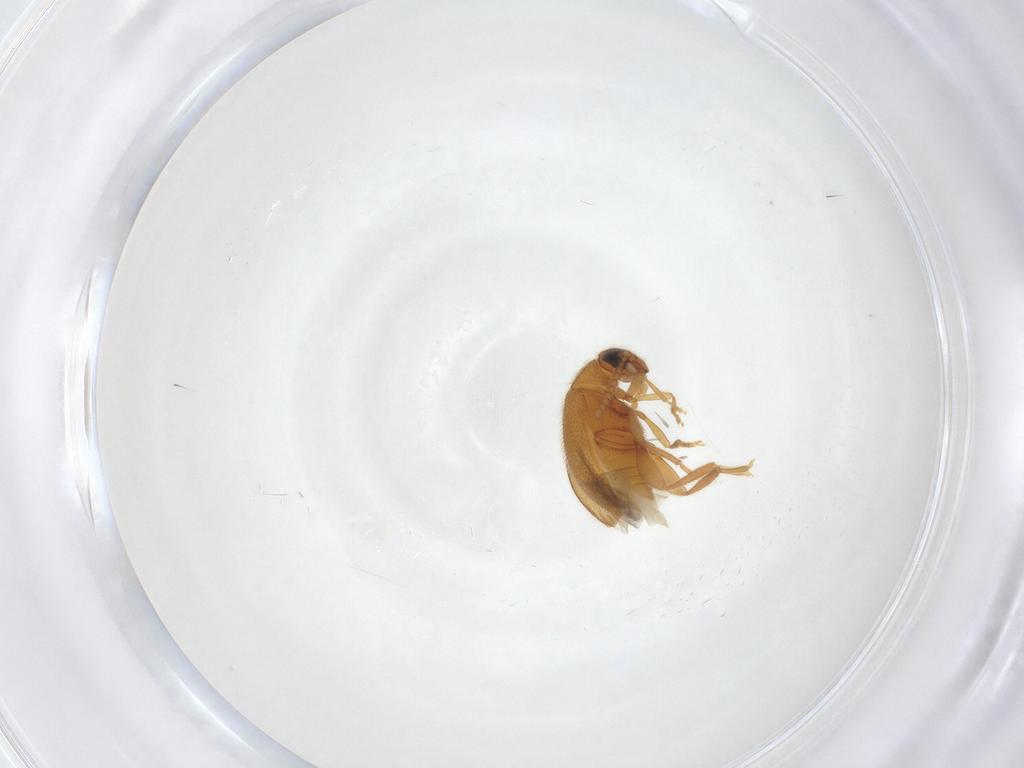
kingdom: Animalia
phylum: Arthropoda
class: Insecta
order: Coleoptera
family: Aderidae
